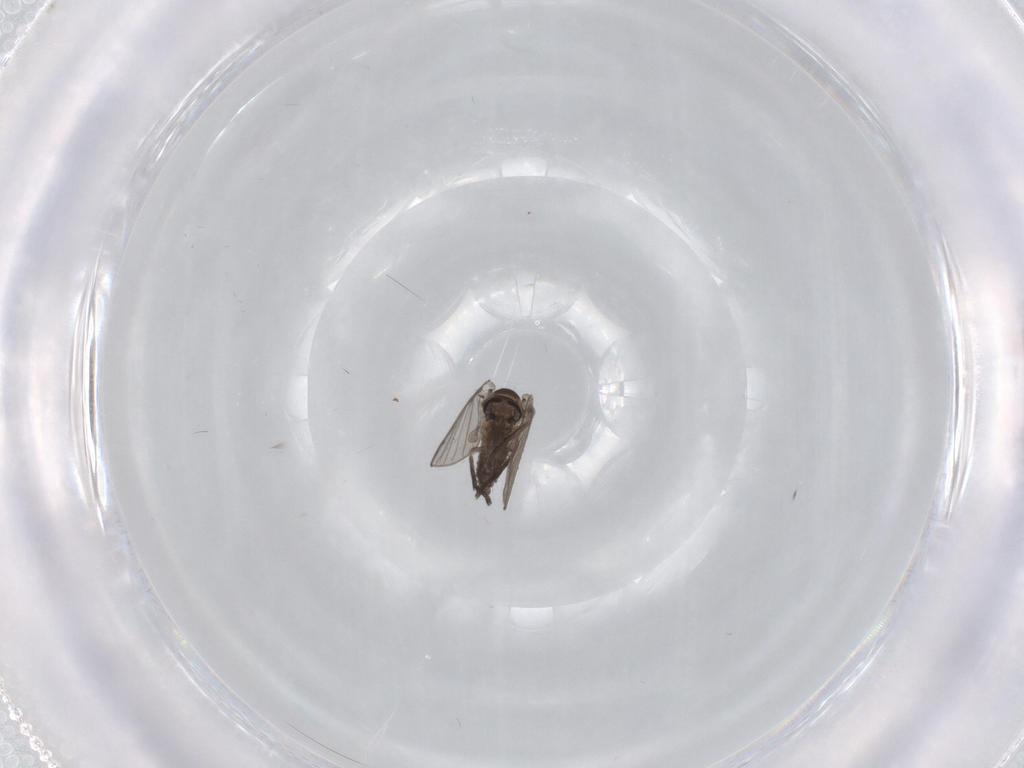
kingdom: Animalia
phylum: Arthropoda
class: Insecta
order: Diptera
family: Psychodidae
